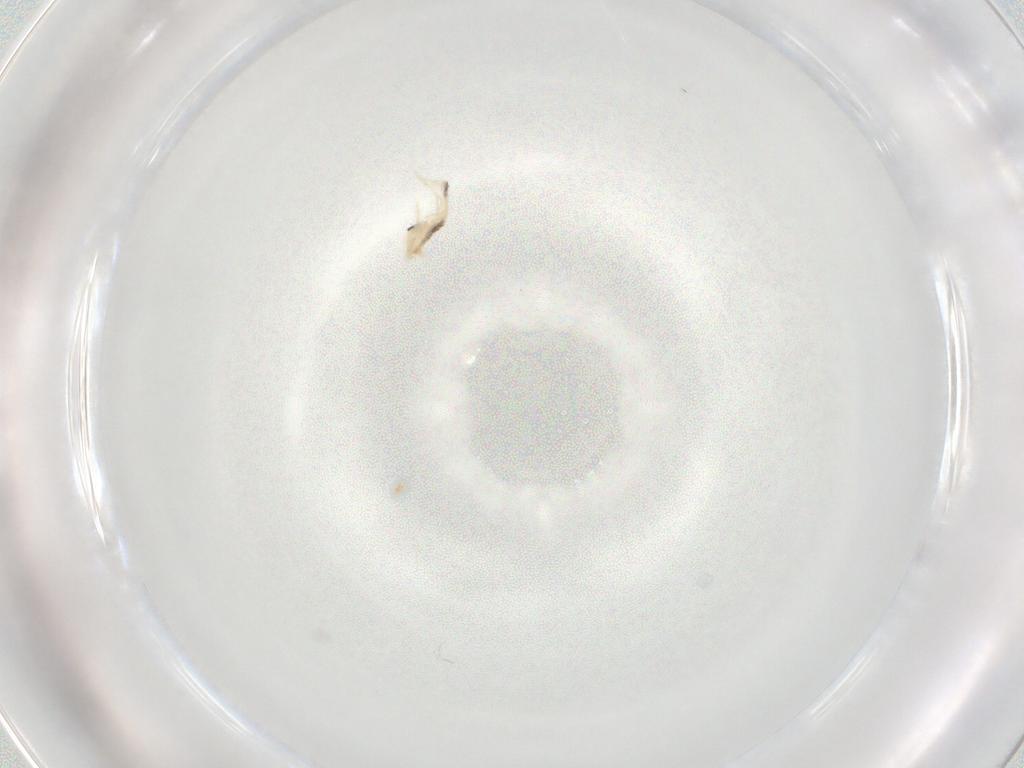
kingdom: Animalia
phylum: Arthropoda
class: Collembola
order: Entomobryomorpha
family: Entomobryidae
